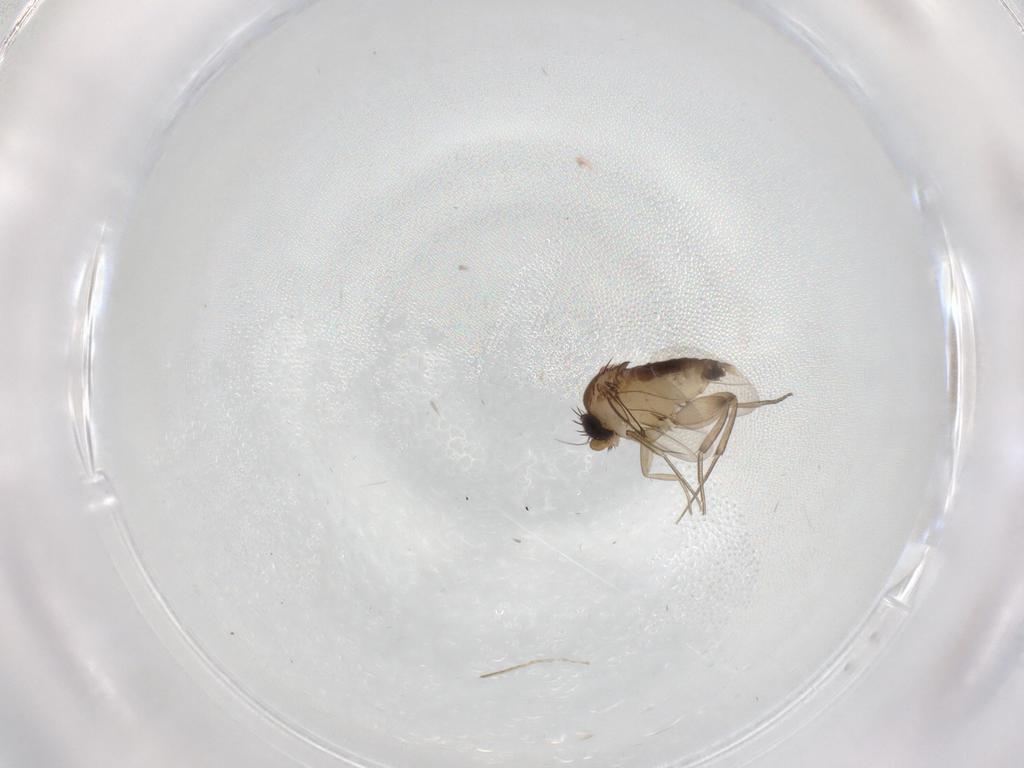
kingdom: Animalia
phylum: Arthropoda
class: Insecta
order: Diptera
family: Phoridae
